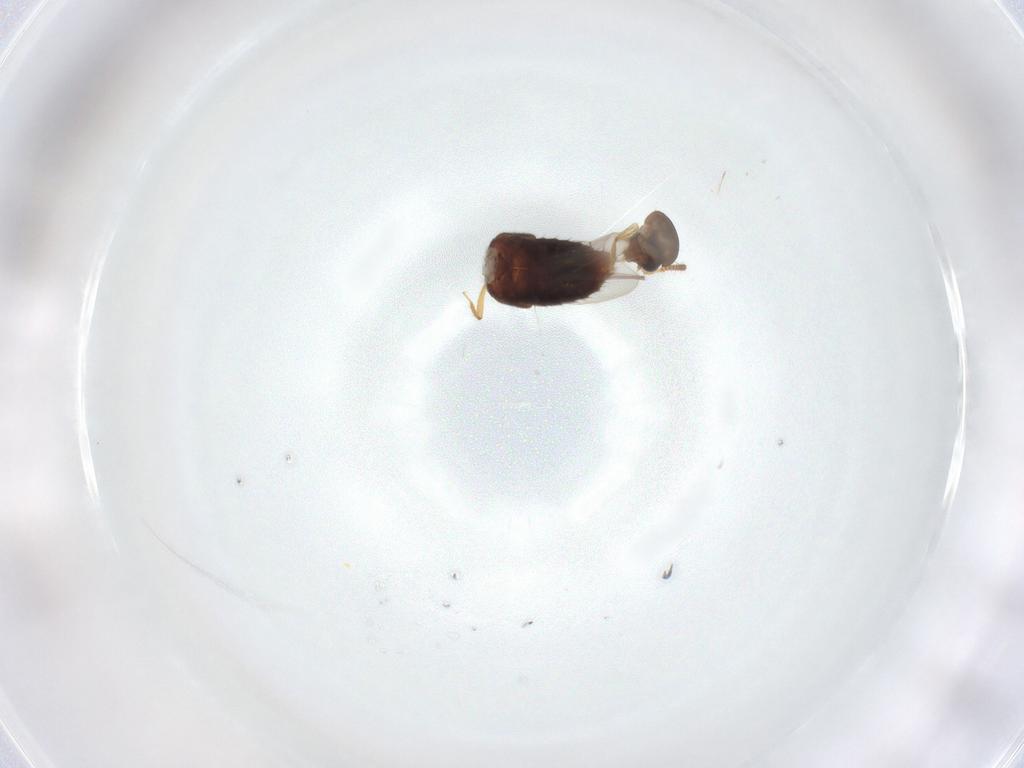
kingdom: Animalia
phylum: Arthropoda
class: Insecta
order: Coleoptera
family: Staphylinidae
